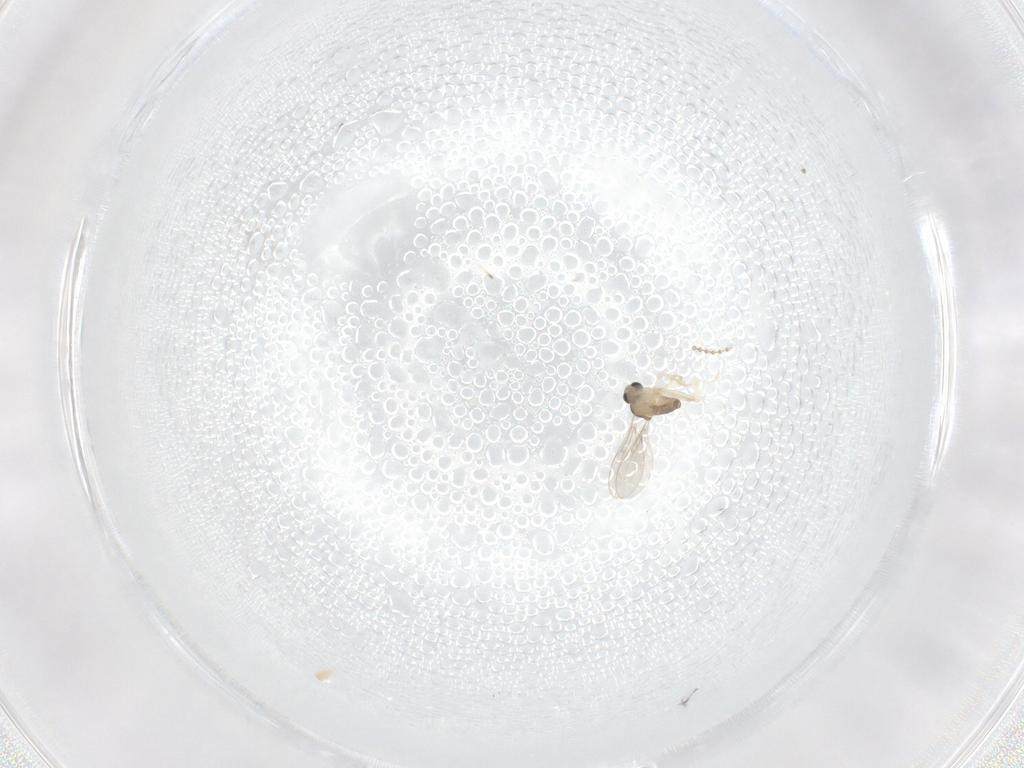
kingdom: Animalia
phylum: Arthropoda
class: Insecta
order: Diptera
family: Cecidomyiidae
